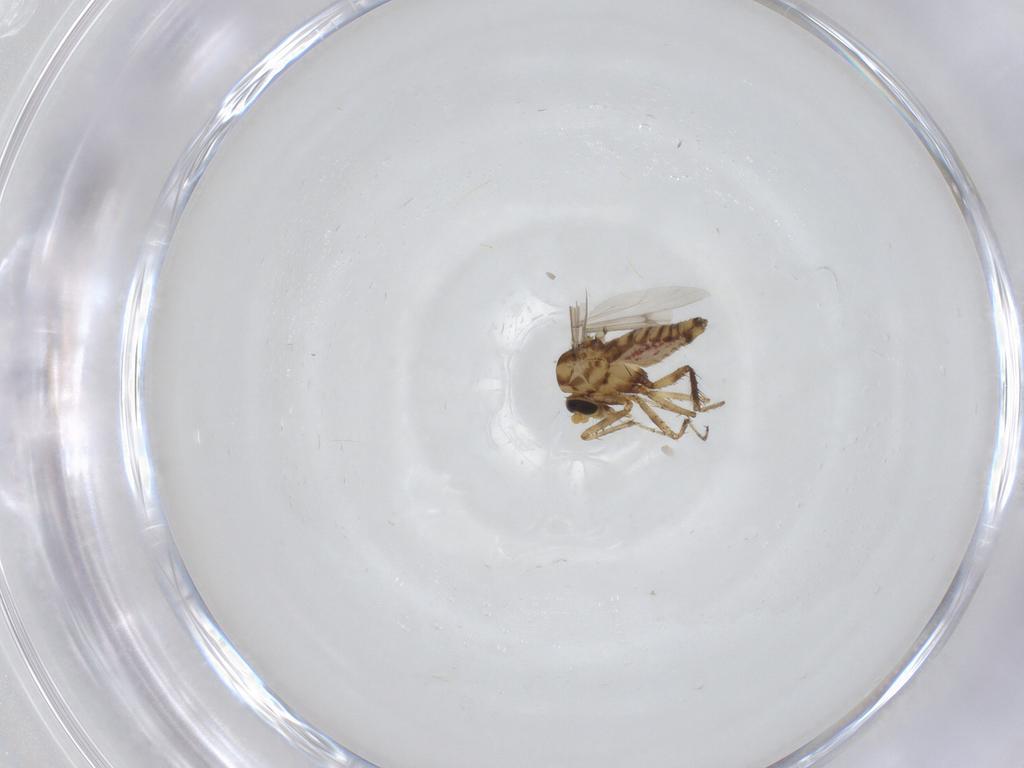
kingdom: Animalia
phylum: Arthropoda
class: Insecta
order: Diptera
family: Ceratopogonidae
